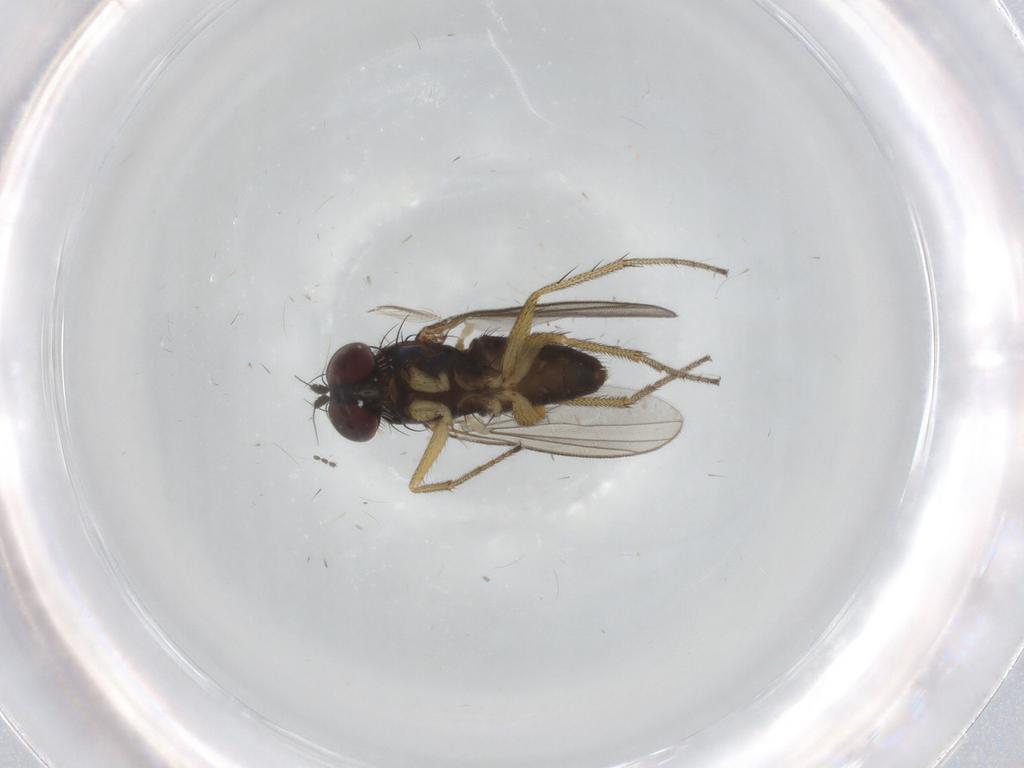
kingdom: Animalia
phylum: Arthropoda
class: Insecta
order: Diptera
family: Ceratopogonidae
